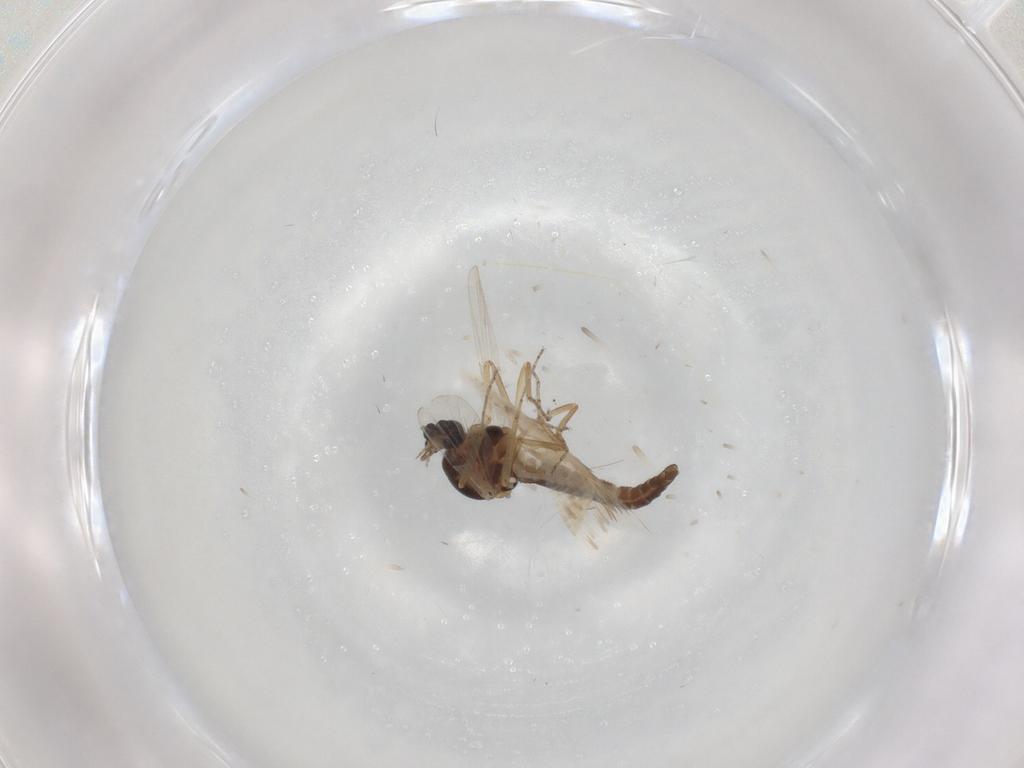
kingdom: Animalia
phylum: Arthropoda
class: Insecta
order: Diptera
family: Ceratopogonidae
